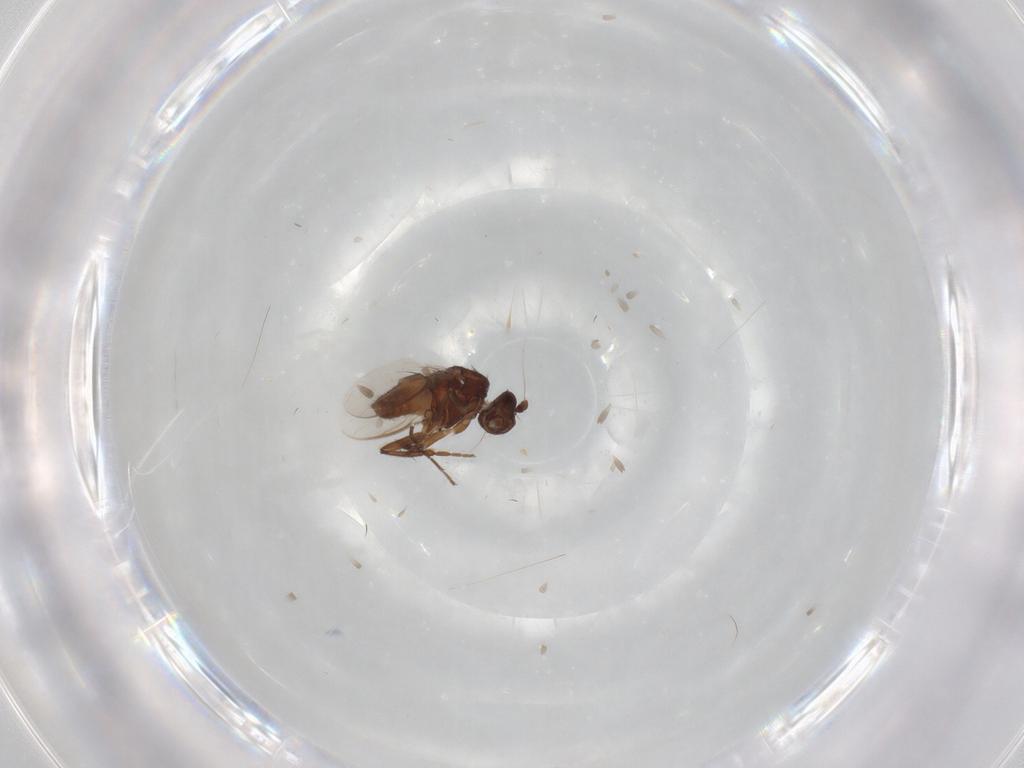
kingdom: Animalia
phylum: Arthropoda
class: Insecta
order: Diptera
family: Sphaeroceridae
